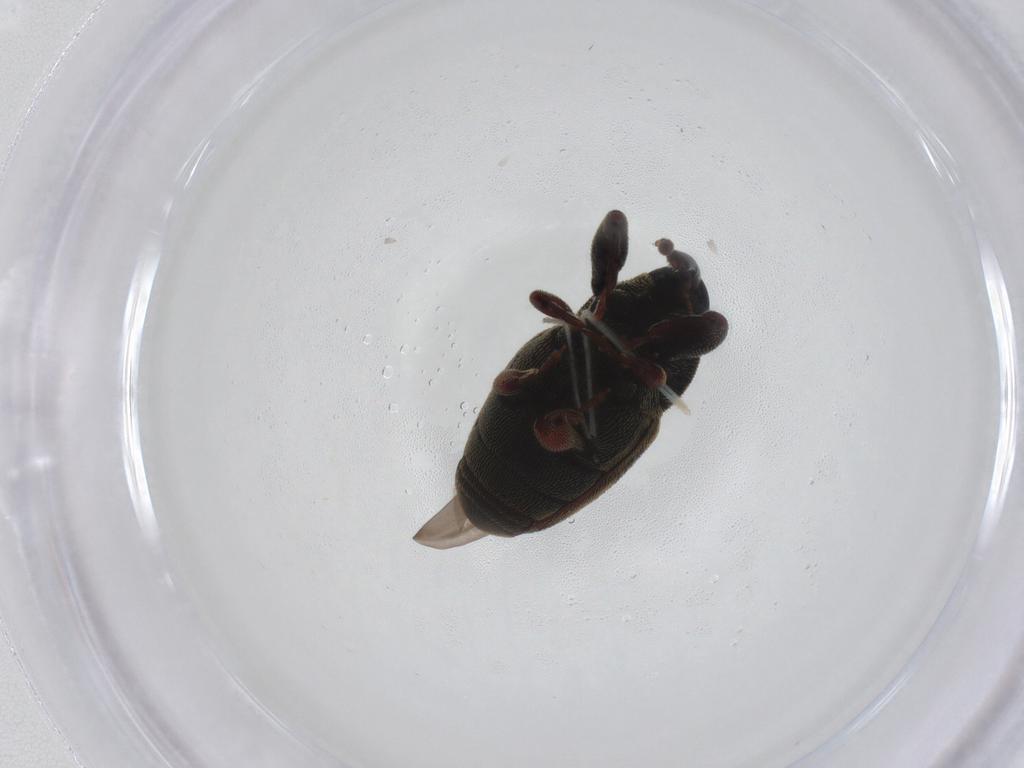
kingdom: Animalia
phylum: Arthropoda
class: Insecta
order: Coleoptera
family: Curculionidae
